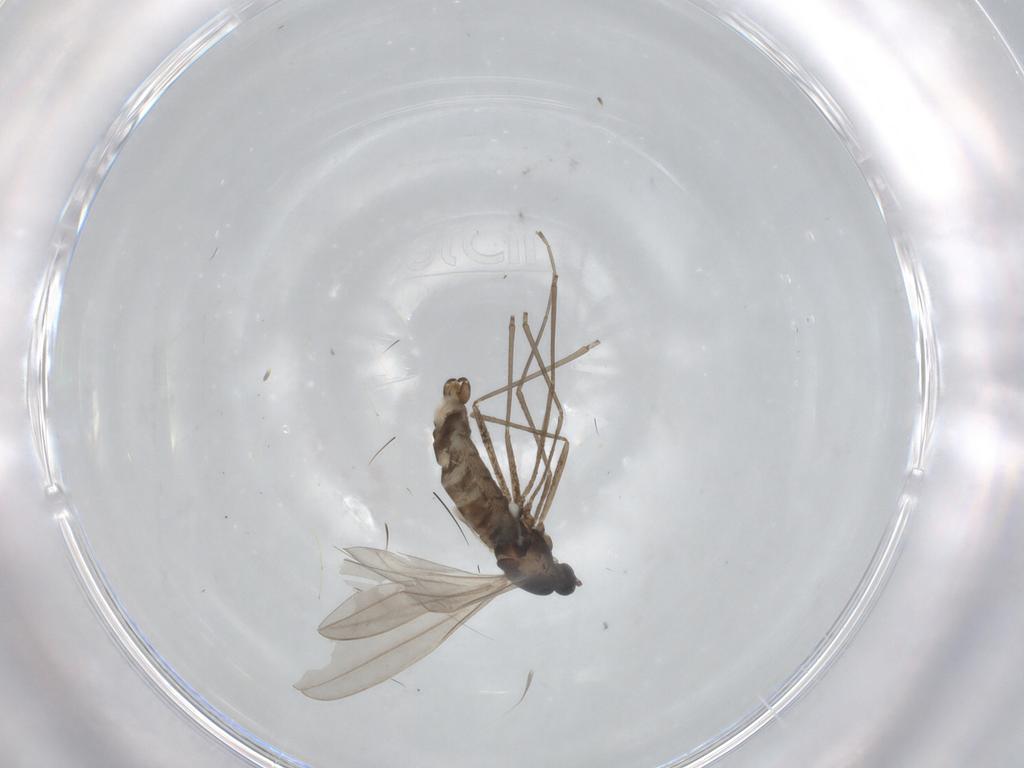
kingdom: Animalia
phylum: Arthropoda
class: Insecta
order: Diptera
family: Cecidomyiidae
